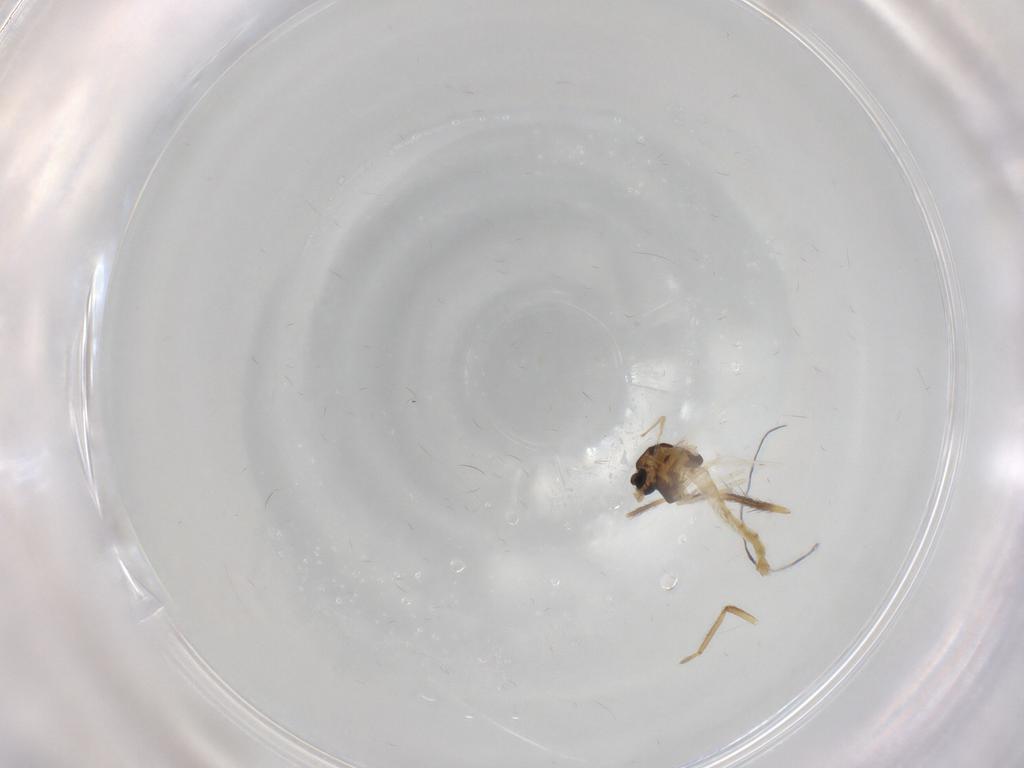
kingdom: Animalia
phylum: Arthropoda
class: Insecta
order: Diptera
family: Chironomidae
